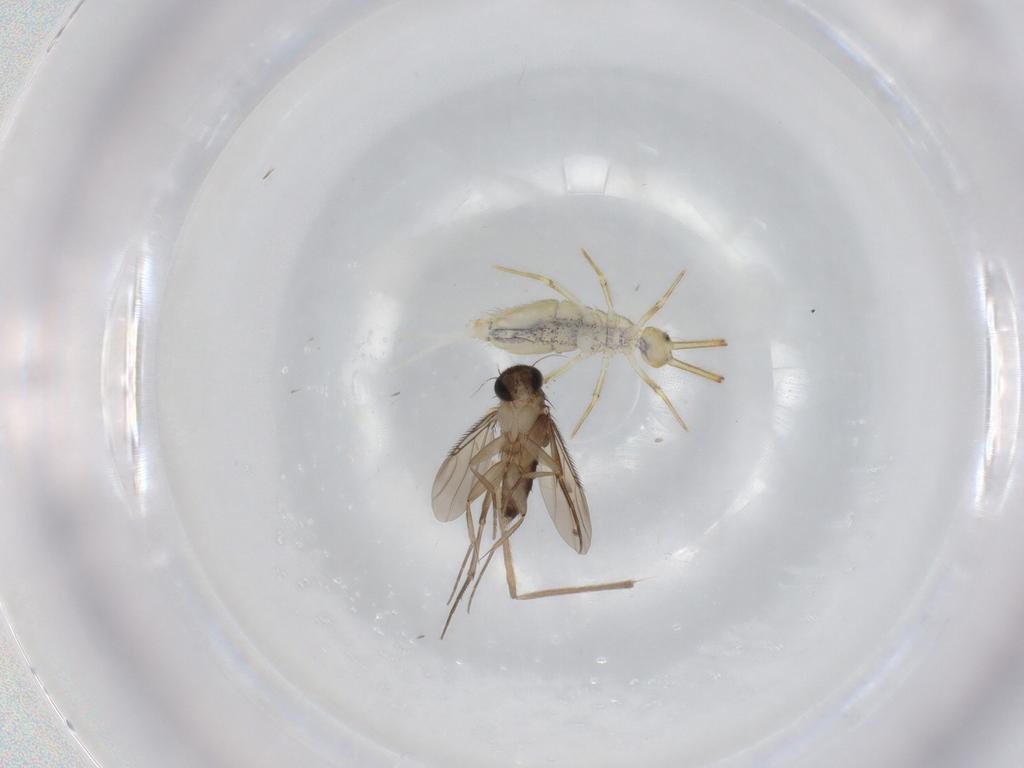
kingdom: Animalia
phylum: Arthropoda
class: Insecta
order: Diptera
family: Phoridae
